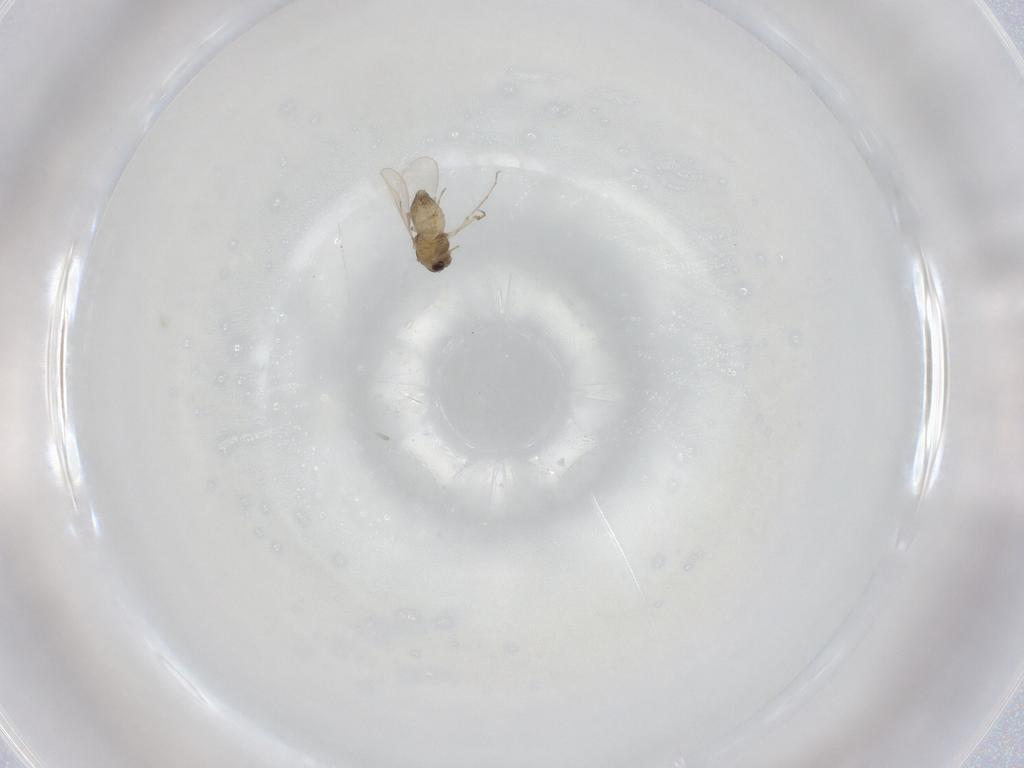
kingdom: Animalia
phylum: Arthropoda
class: Insecta
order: Diptera
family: Chironomidae
